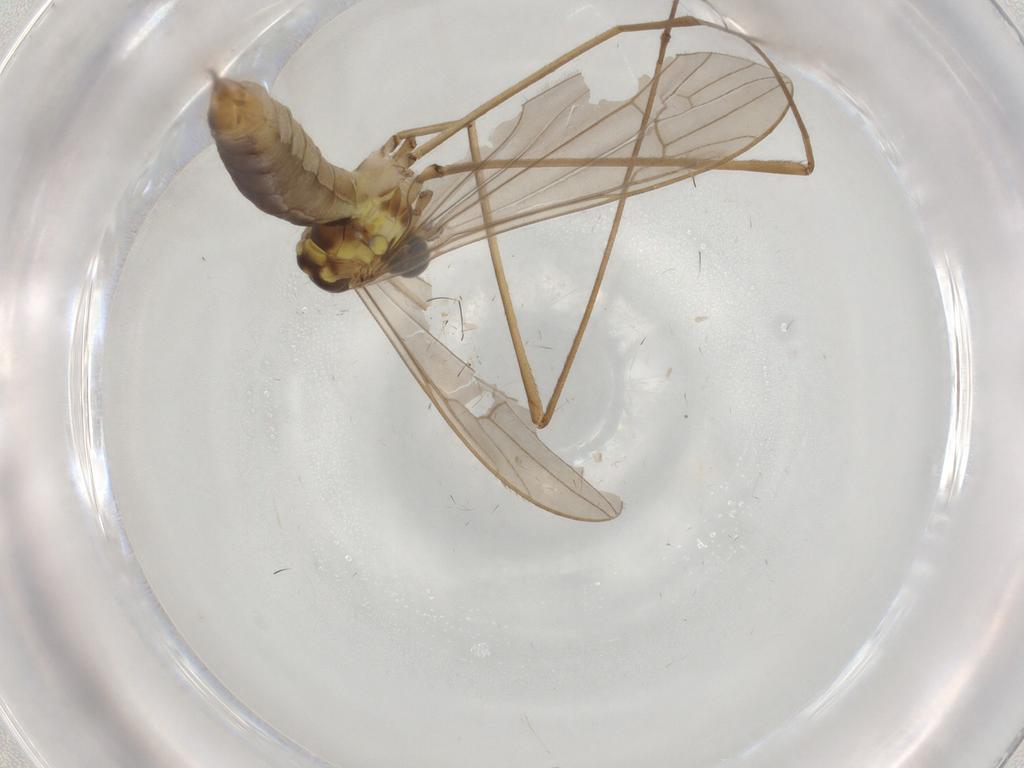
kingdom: Animalia
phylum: Arthropoda
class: Insecta
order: Diptera
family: Limoniidae
